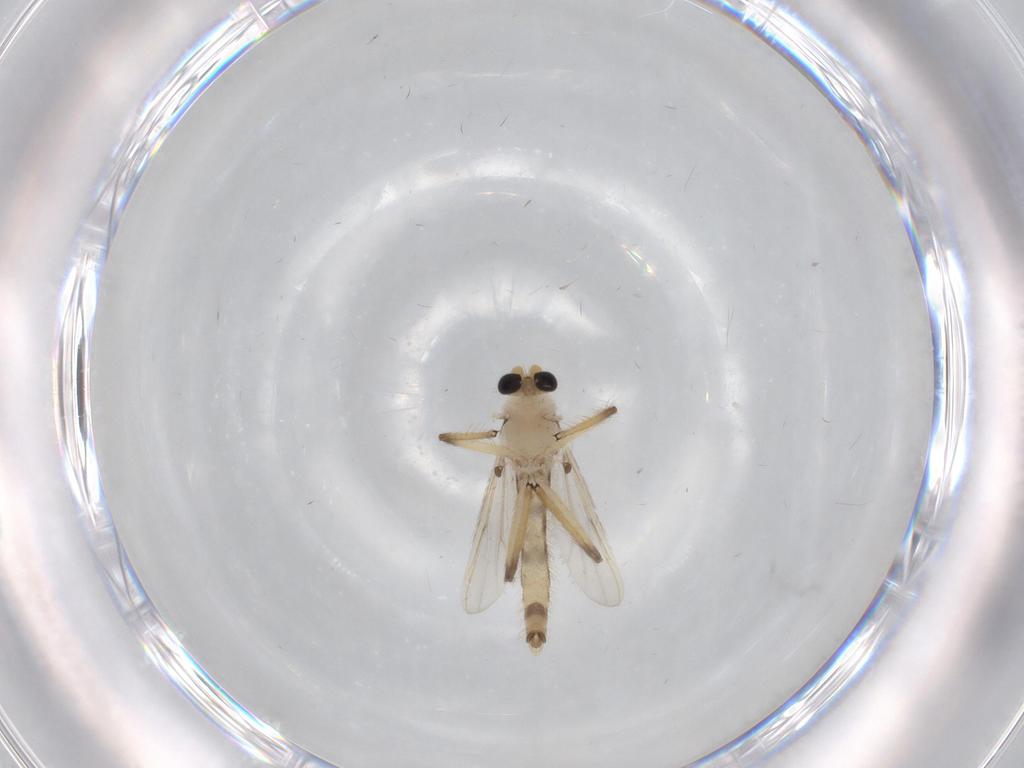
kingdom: Animalia
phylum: Arthropoda
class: Insecta
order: Diptera
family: Chironomidae
